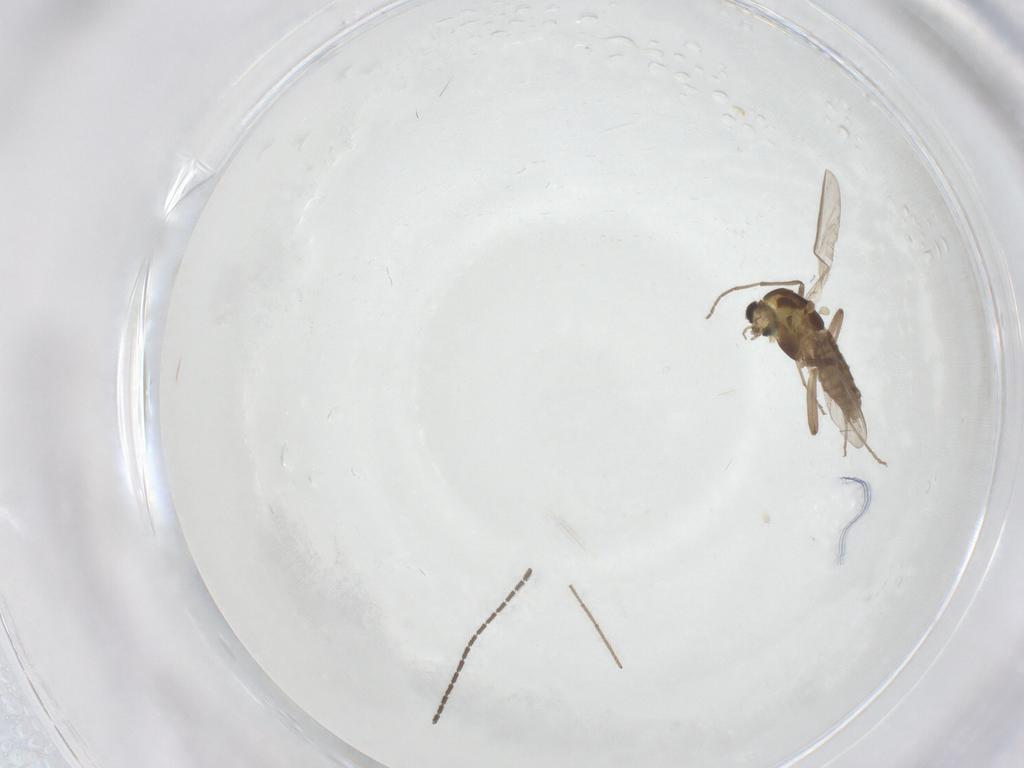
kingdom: Animalia
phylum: Arthropoda
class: Insecta
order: Diptera
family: Sciaridae
